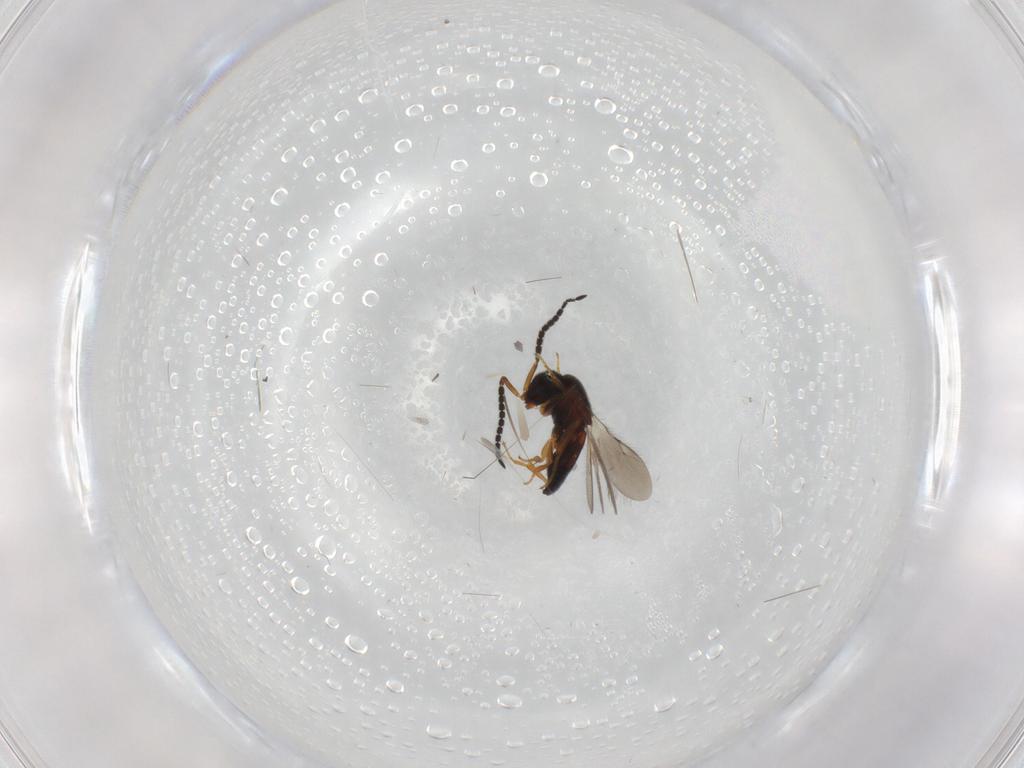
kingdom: Animalia
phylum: Arthropoda
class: Insecta
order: Hymenoptera
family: Scelionidae
